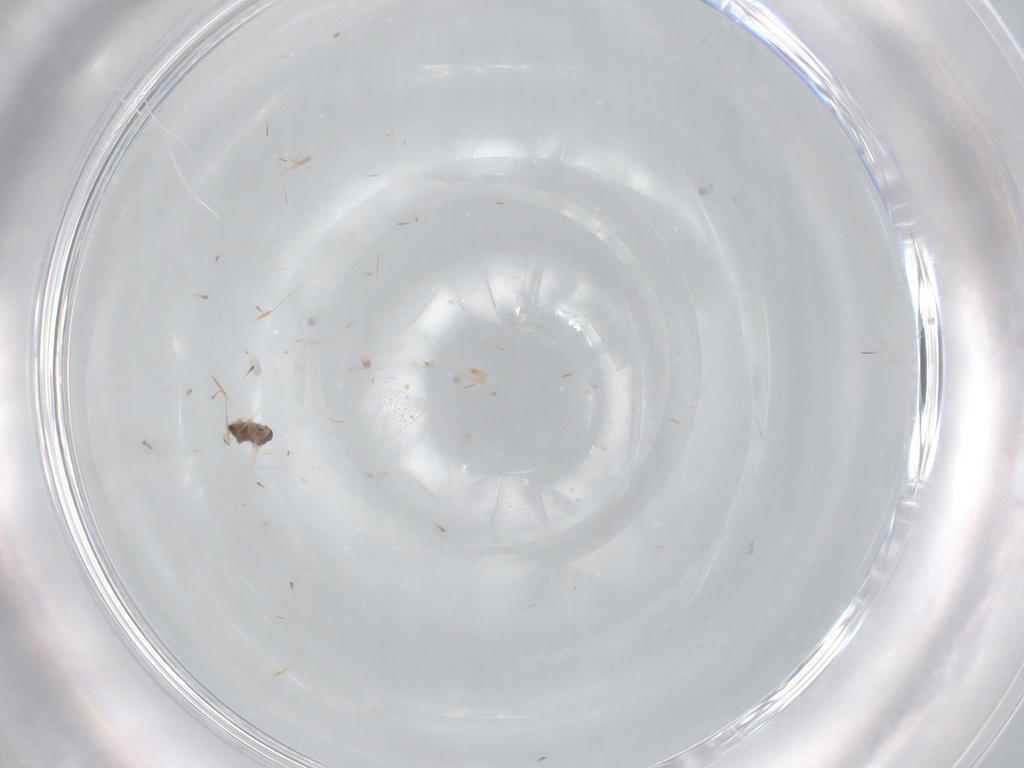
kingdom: Animalia
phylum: Arthropoda
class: Insecta
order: Diptera
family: Cecidomyiidae
